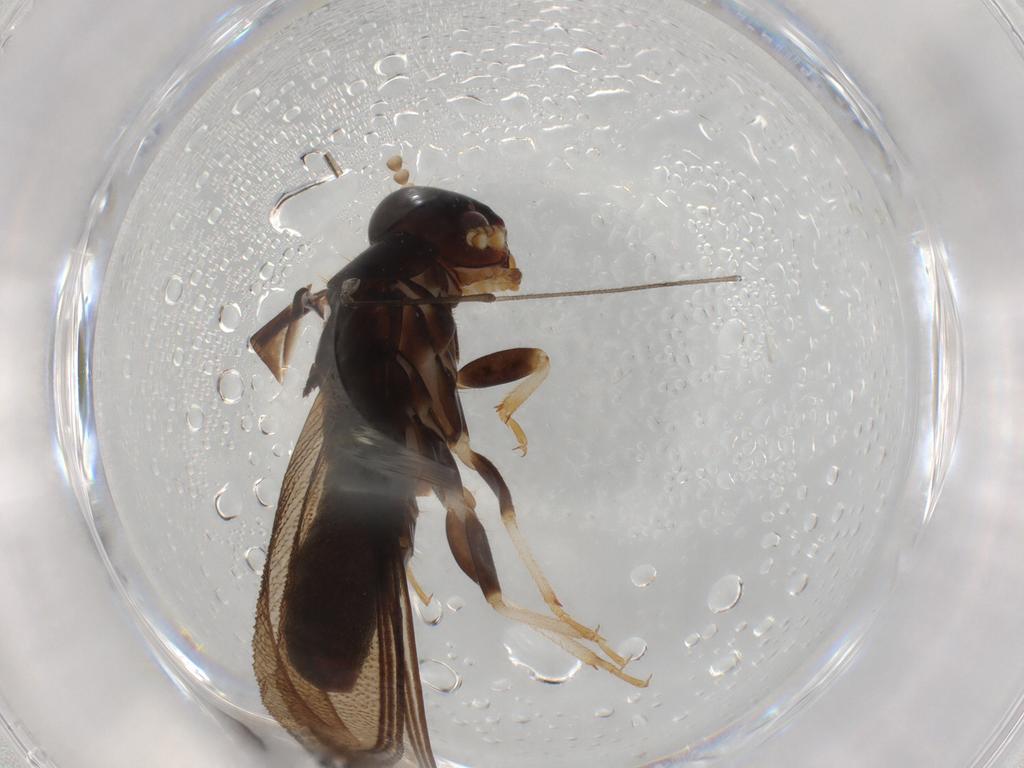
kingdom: Animalia
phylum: Arthropoda
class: Insecta
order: Blattodea
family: Kalotermitidae
